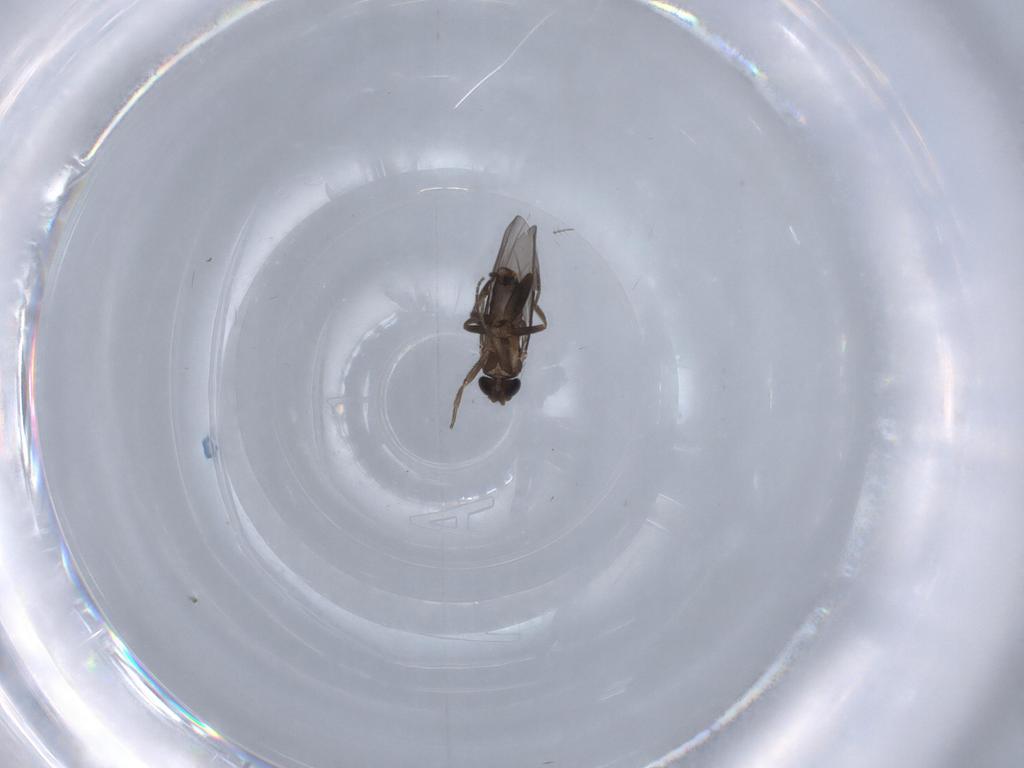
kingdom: Animalia
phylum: Arthropoda
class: Insecta
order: Diptera
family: Phoridae
